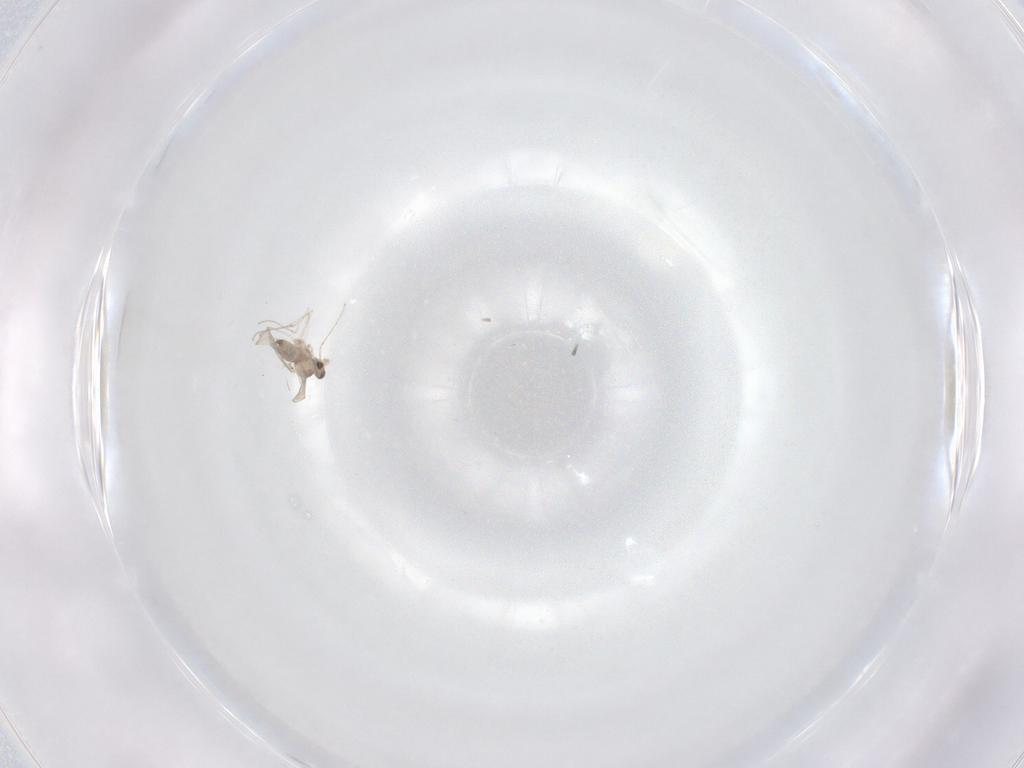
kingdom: Animalia
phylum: Arthropoda
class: Insecta
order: Diptera
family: Cecidomyiidae
